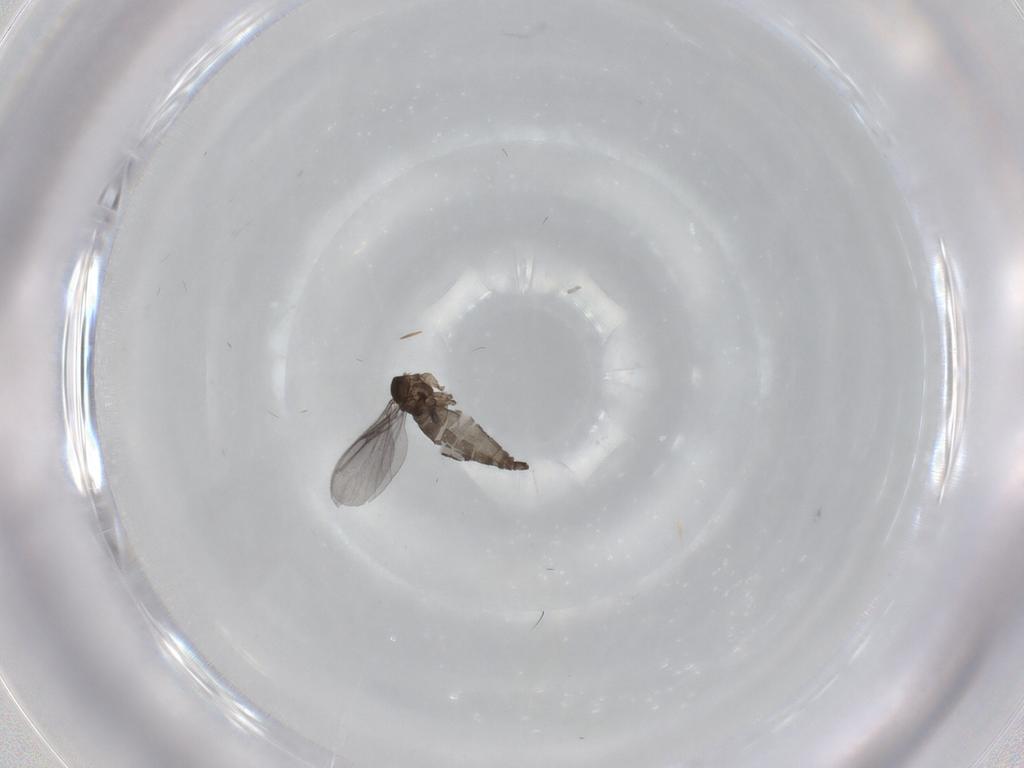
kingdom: Animalia
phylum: Arthropoda
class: Insecta
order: Diptera
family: Sciaridae
